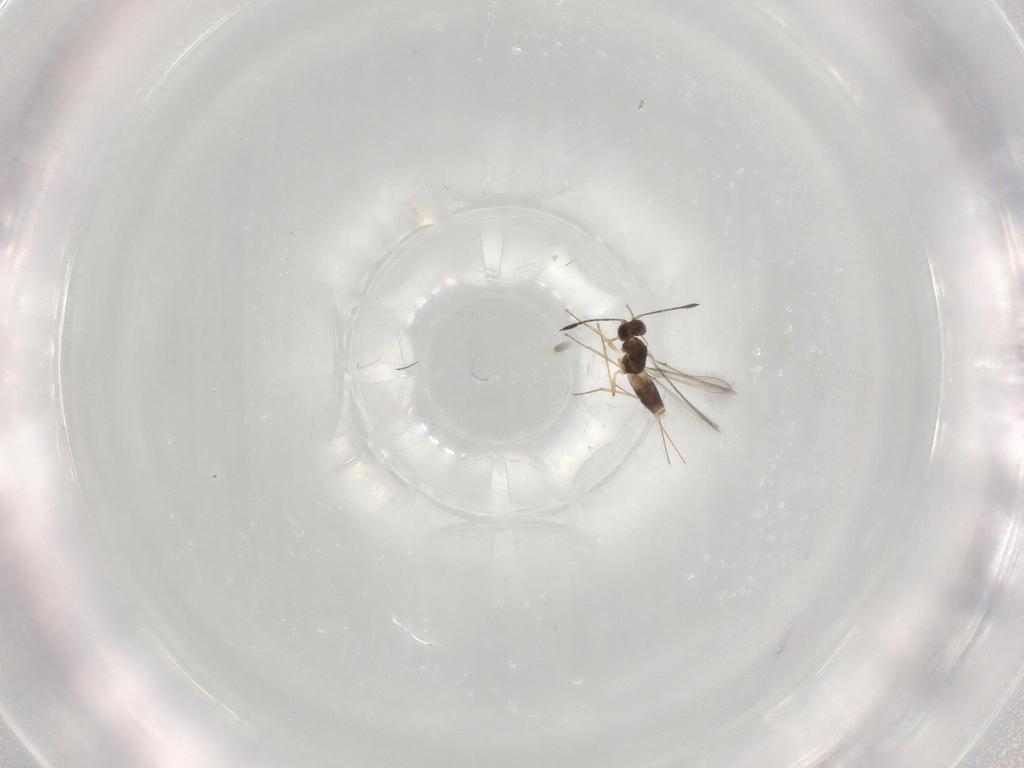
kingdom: Animalia
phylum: Arthropoda
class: Insecta
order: Hymenoptera
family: Mymaridae
